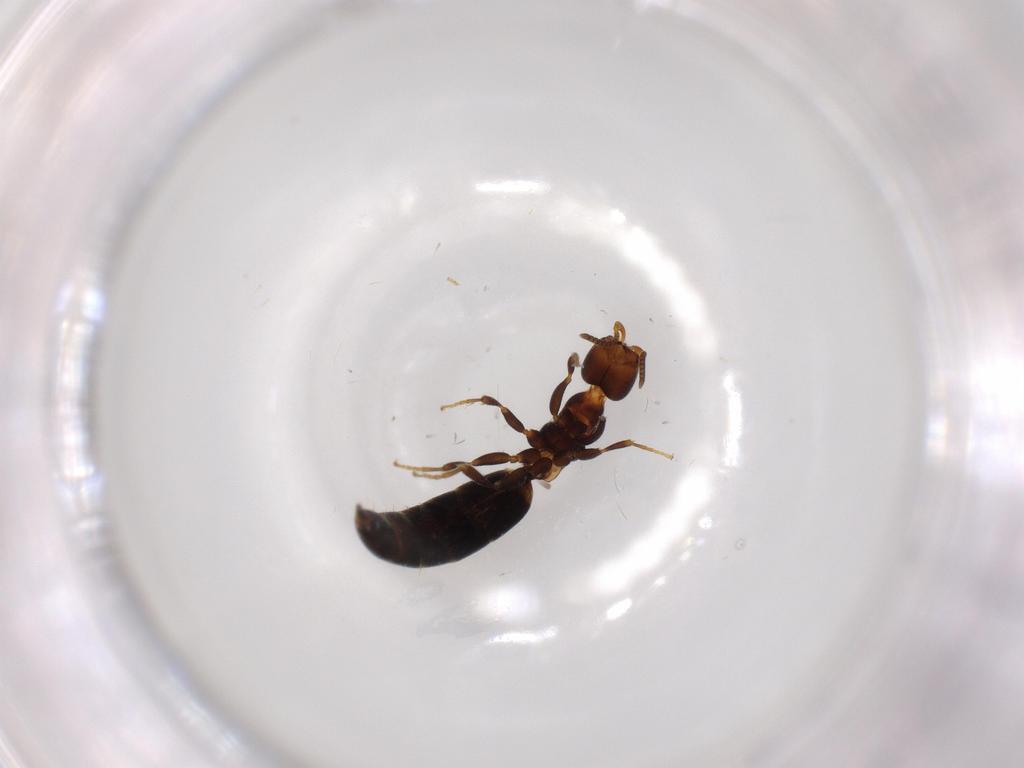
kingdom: Animalia
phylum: Arthropoda
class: Insecta
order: Hymenoptera
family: Bethylidae
